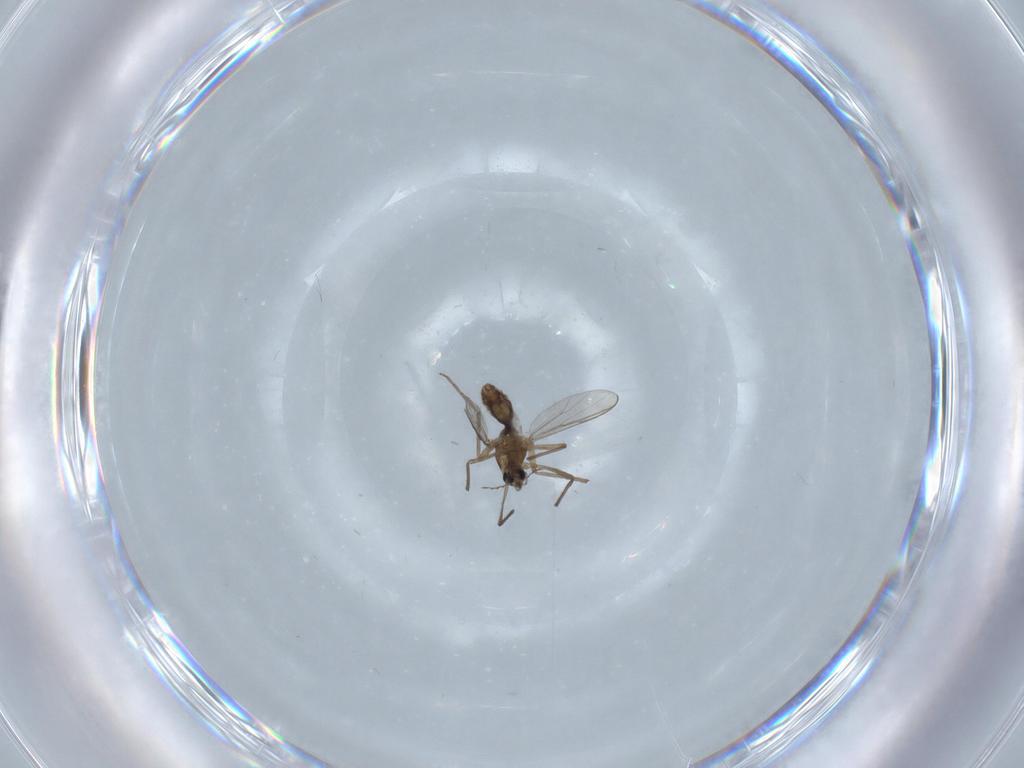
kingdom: Animalia
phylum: Arthropoda
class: Insecta
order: Diptera
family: Chironomidae
